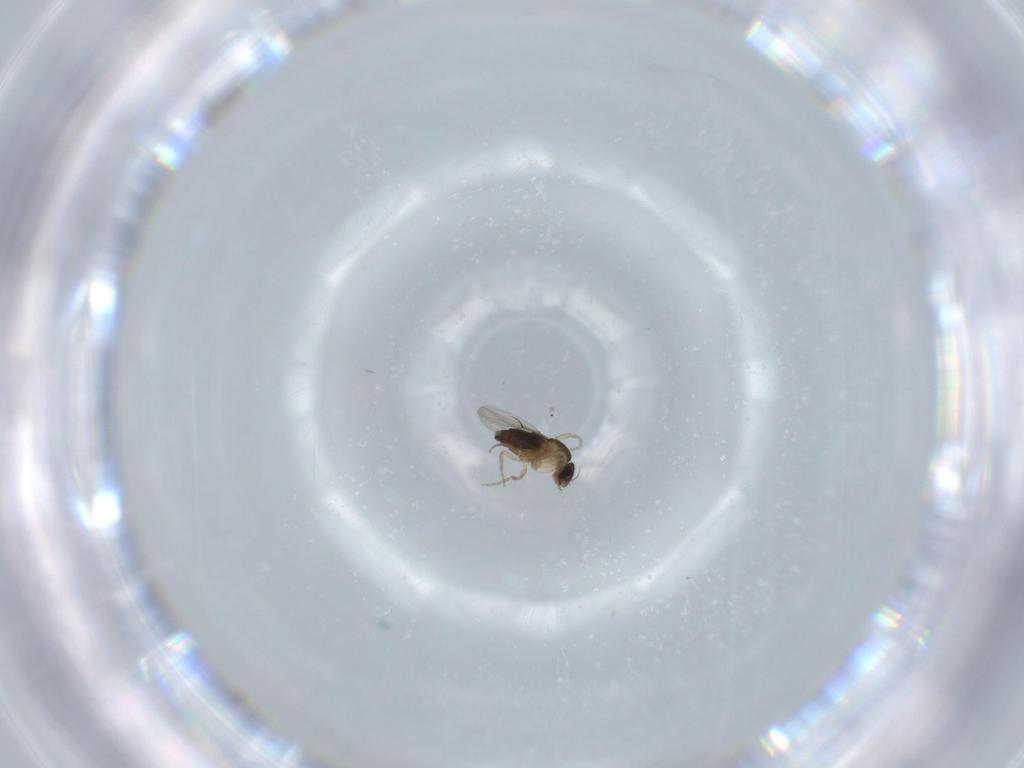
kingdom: Animalia
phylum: Arthropoda
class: Insecta
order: Diptera
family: Phoridae
